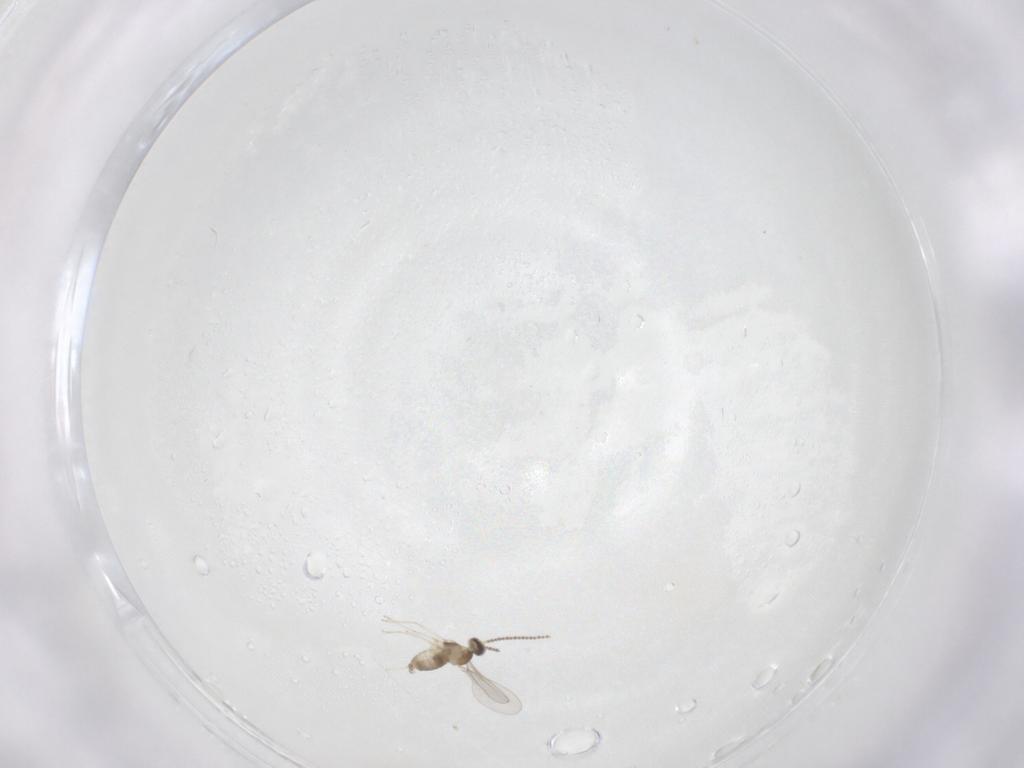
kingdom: Animalia
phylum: Arthropoda
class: Insecta
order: Diptera
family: Cecidomyiidae
